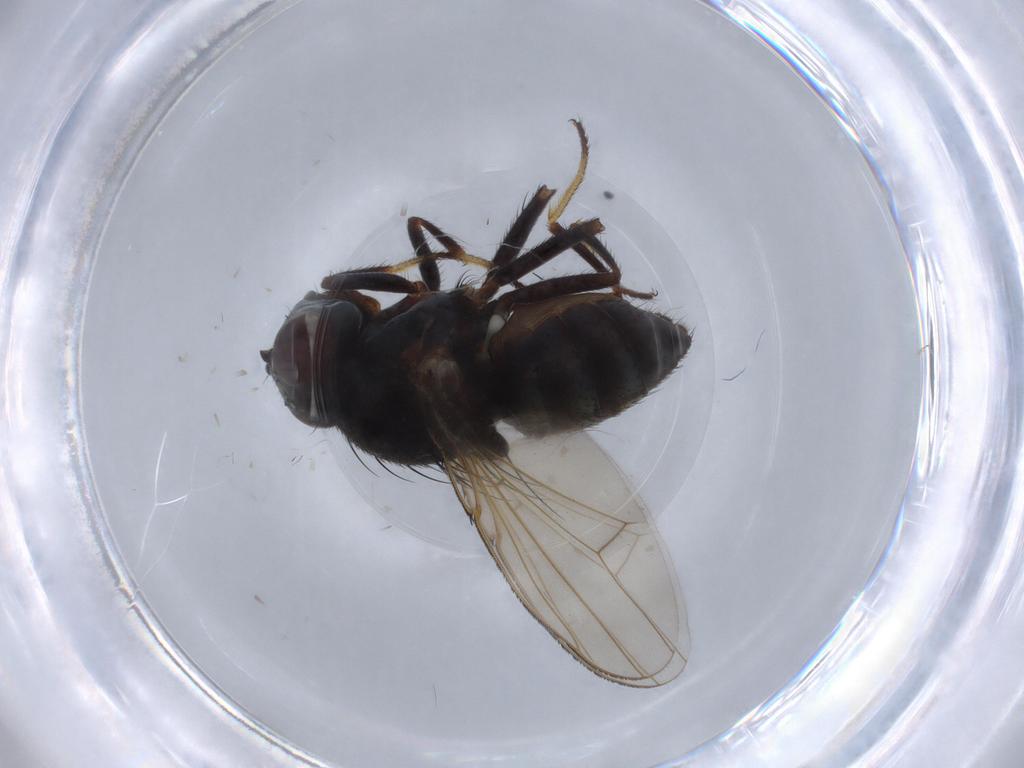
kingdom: Animalia
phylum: Arthropoda
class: Insecta
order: Diptera
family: Ephydridae
